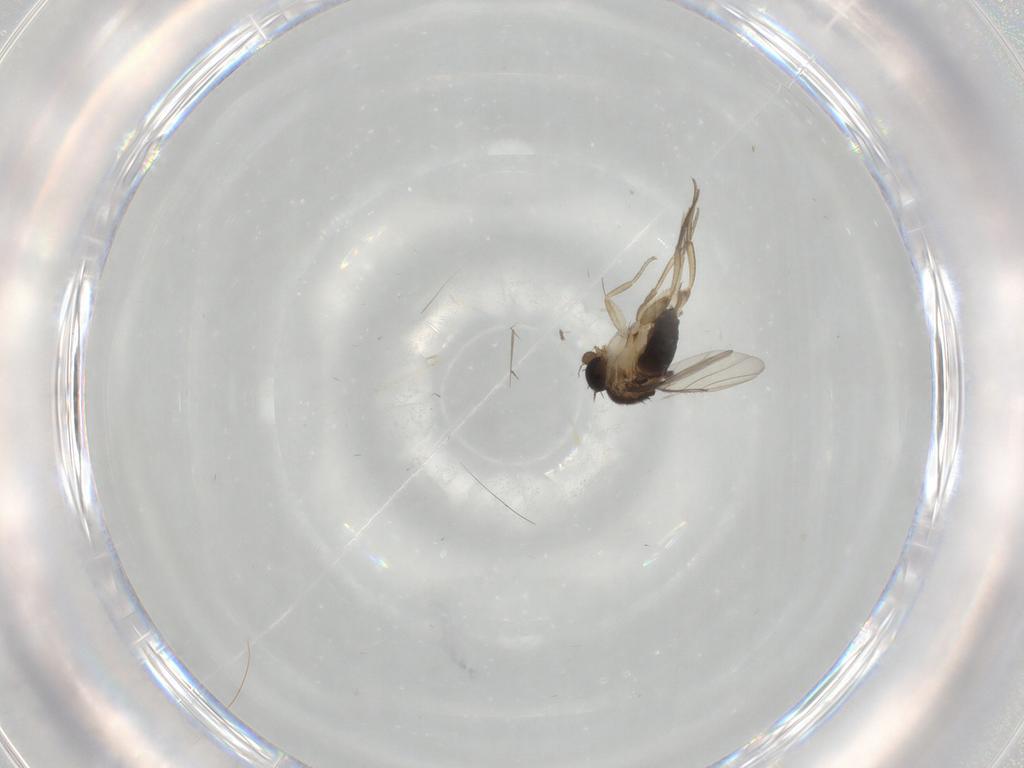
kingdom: Animalia
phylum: Arthropoda
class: Insecta
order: Diptera
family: Cecidomyiidae
